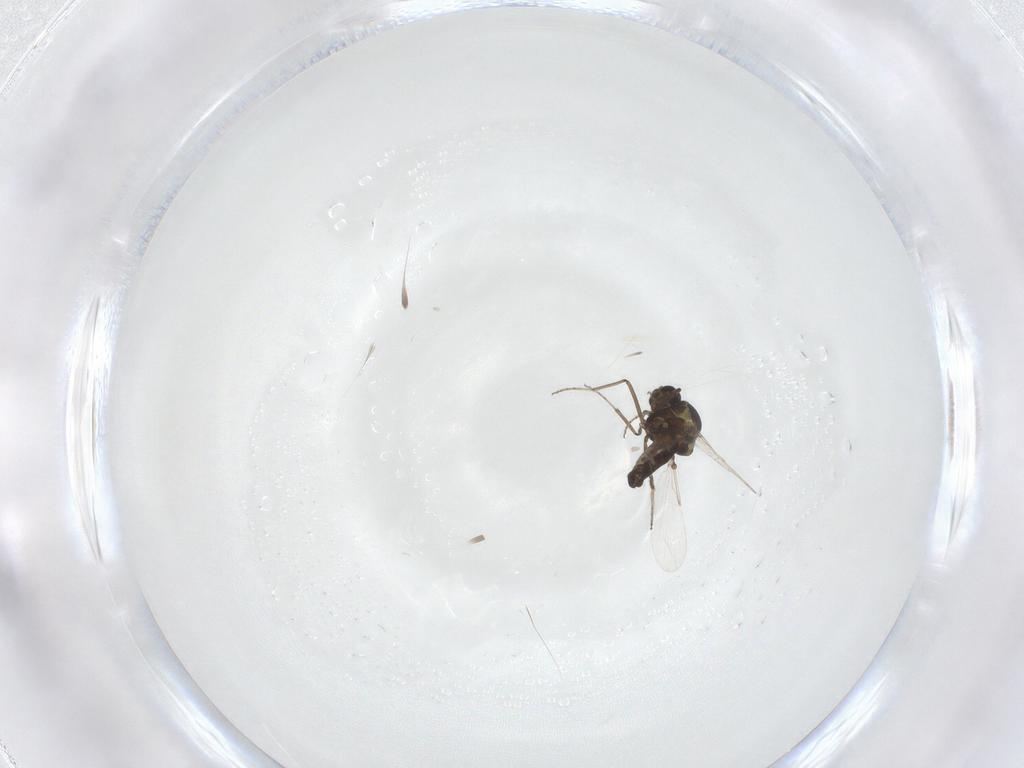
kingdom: Animalia
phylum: Arthropoda
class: Insecta
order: Diptera
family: Ceratopogonidae
